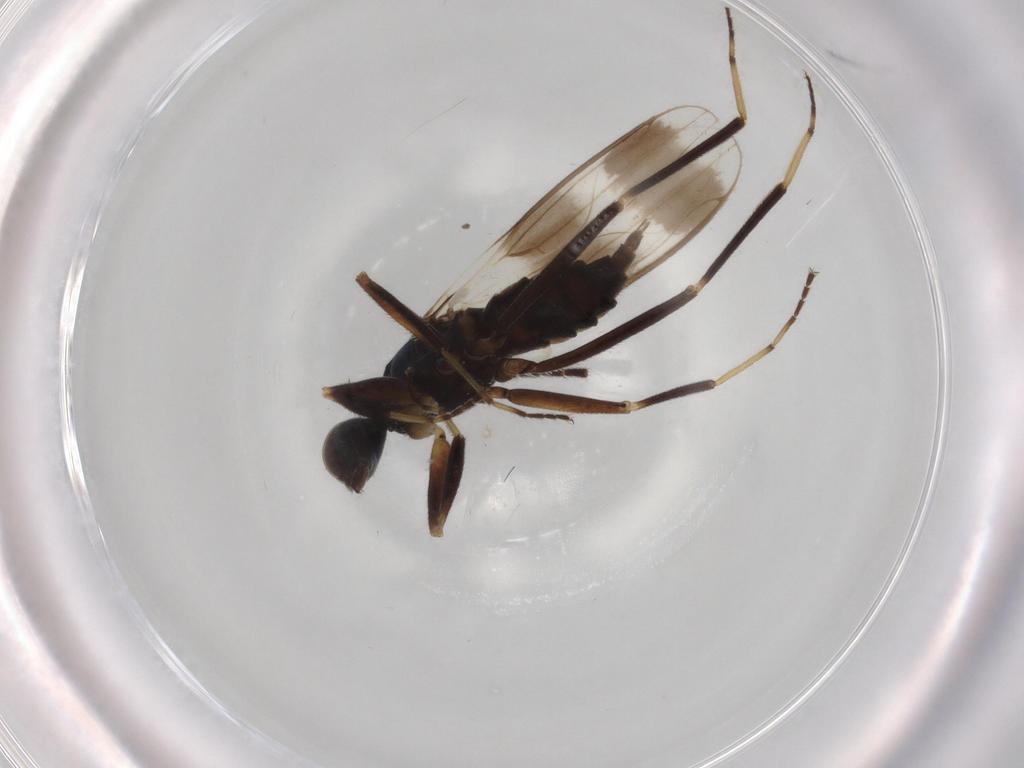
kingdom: Animalia
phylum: Arthropoda
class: Insecta
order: Diptera
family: Hybotidae
